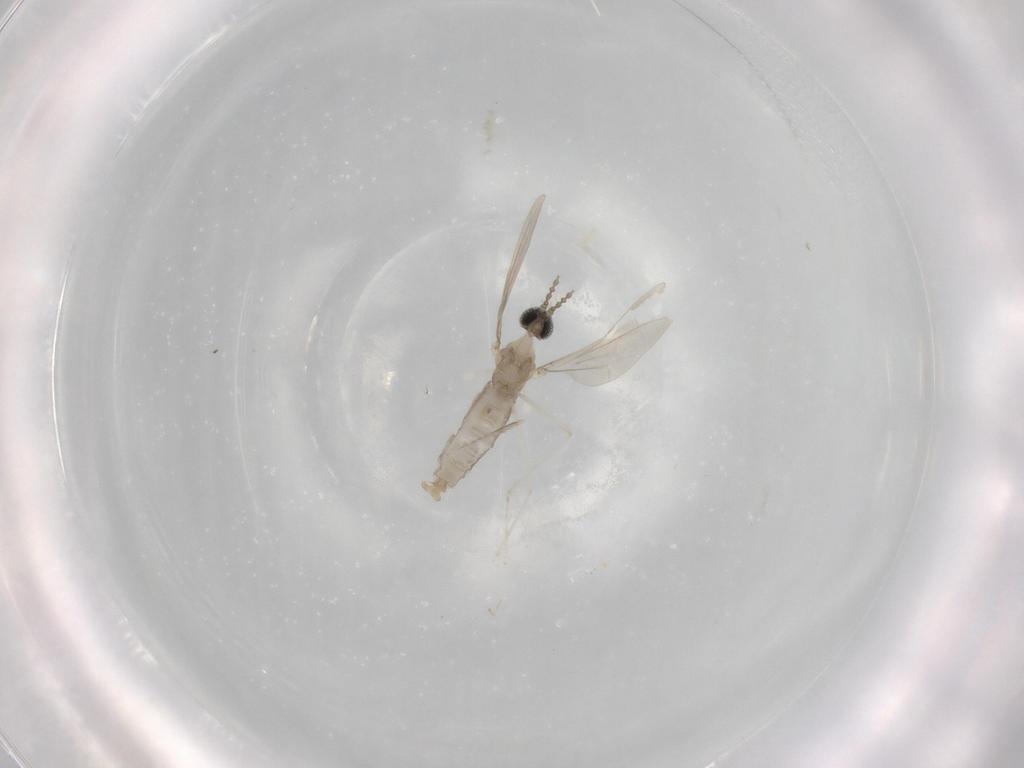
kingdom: Animalia
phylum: Arthropoda
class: Insecta
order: Diptera
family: Cecidomyiidae
